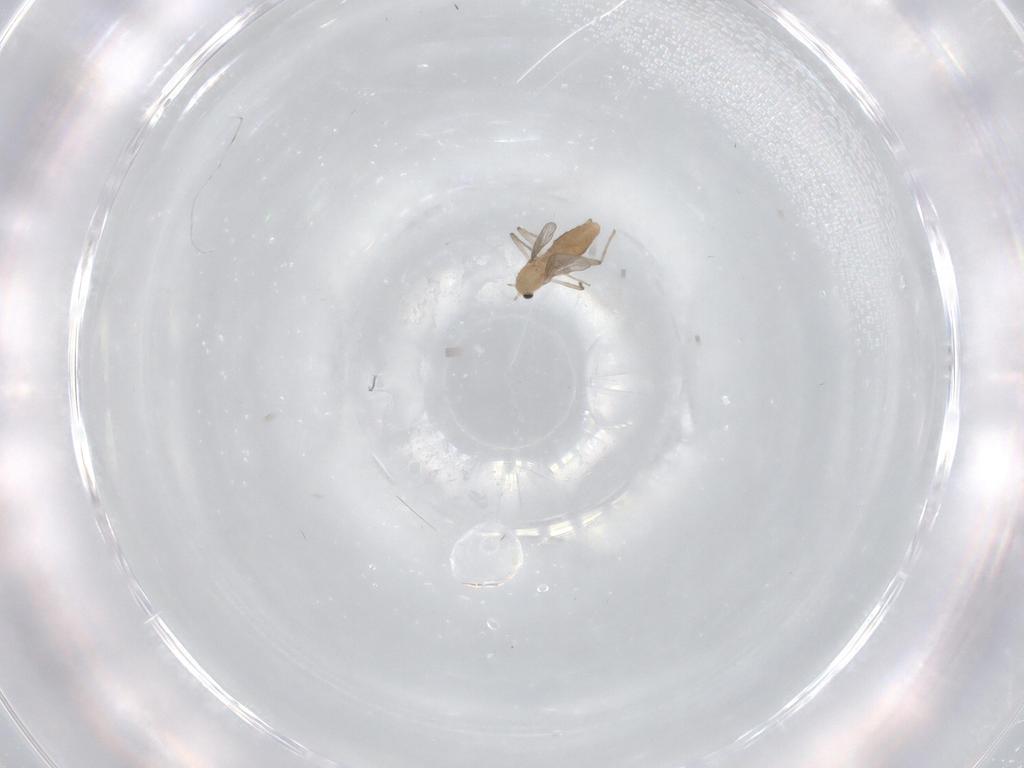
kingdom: Animalia
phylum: Arthropoda
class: Insecta
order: Diptera
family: Chironomidae
